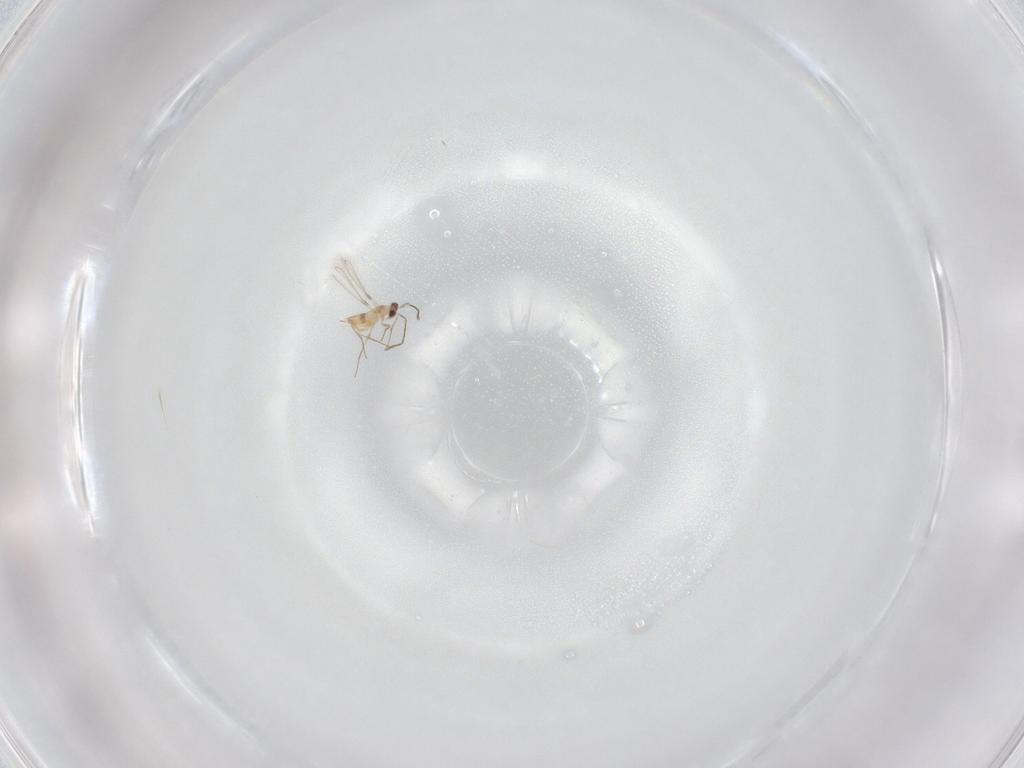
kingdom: Animalia
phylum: Arthropoda
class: Insecta
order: Hymenoptera
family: Mymaridae
